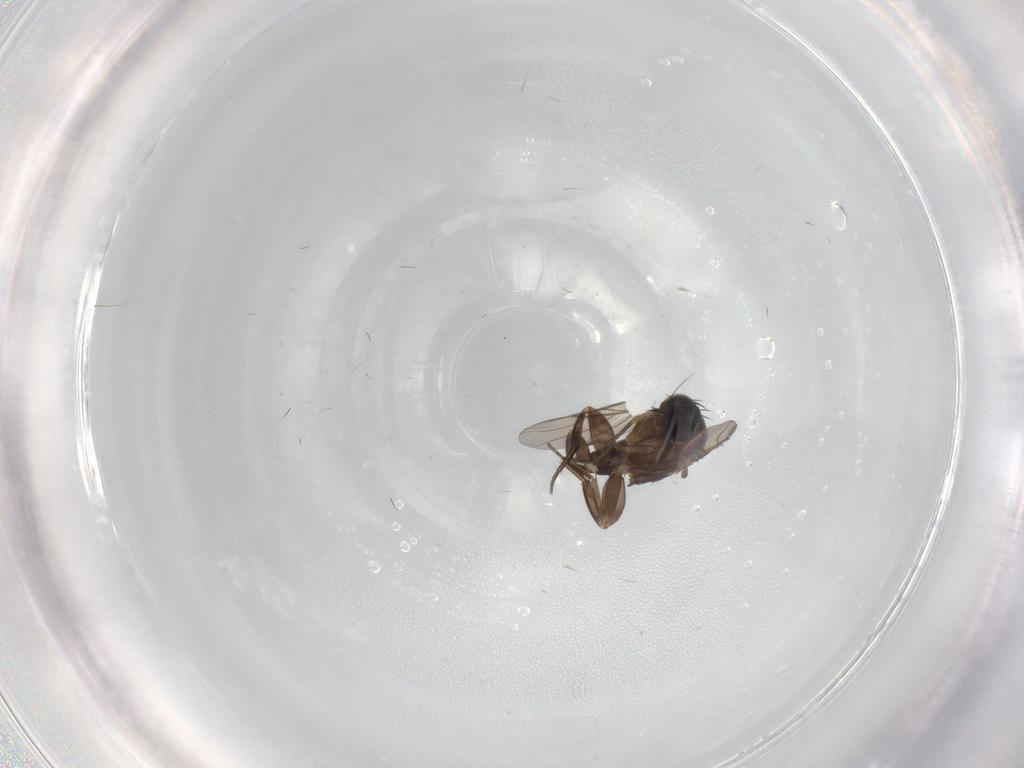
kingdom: Animalia
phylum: Arthropoda
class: Insecta
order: Diptera
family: Phoridae
